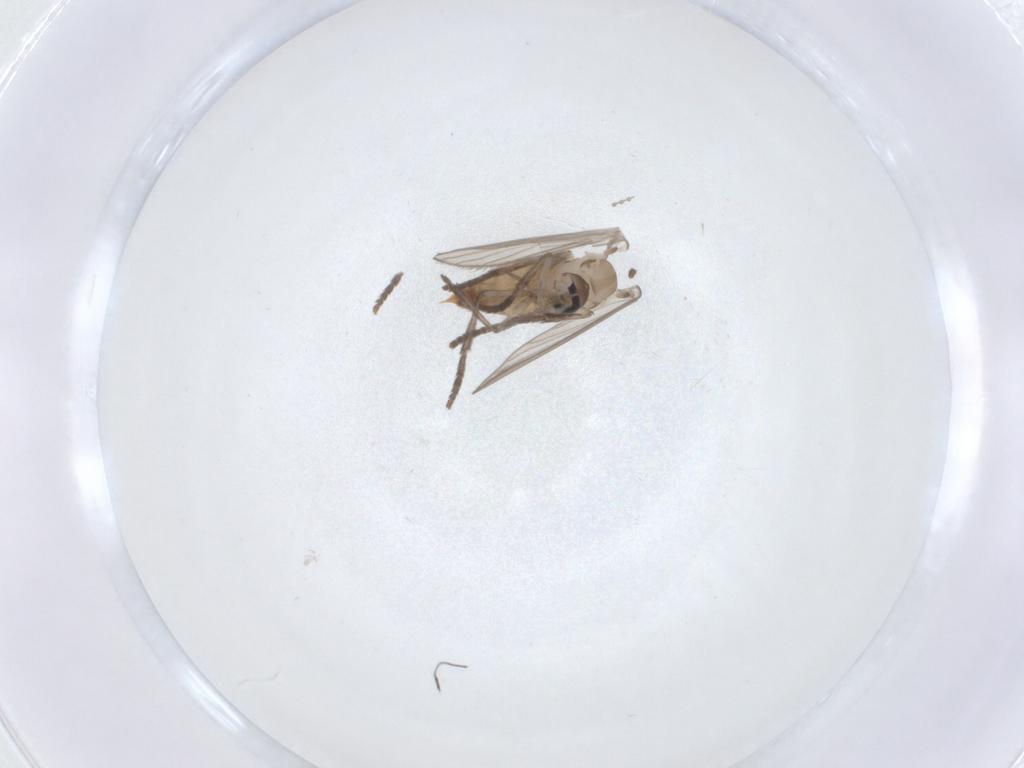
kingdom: Animalia
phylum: Arthropoda
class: Insecta
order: Diptera
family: Psychodidae
